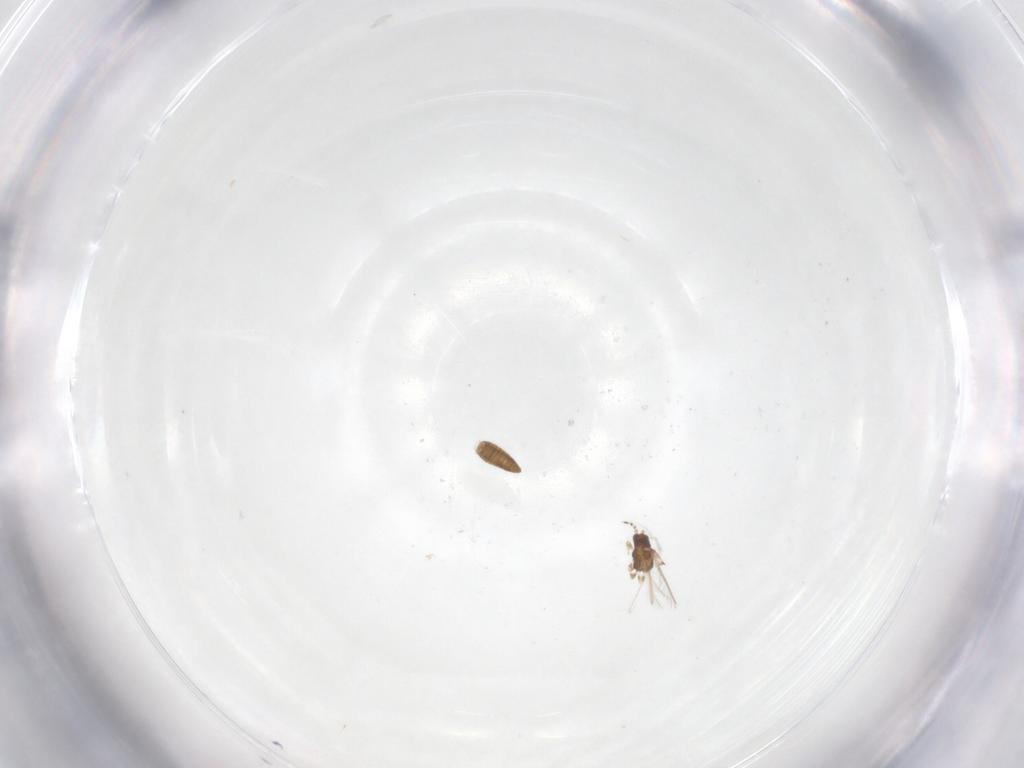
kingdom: Animalia
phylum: Arthropoda
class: Insecta
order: Thysanoptera
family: Thripidae
